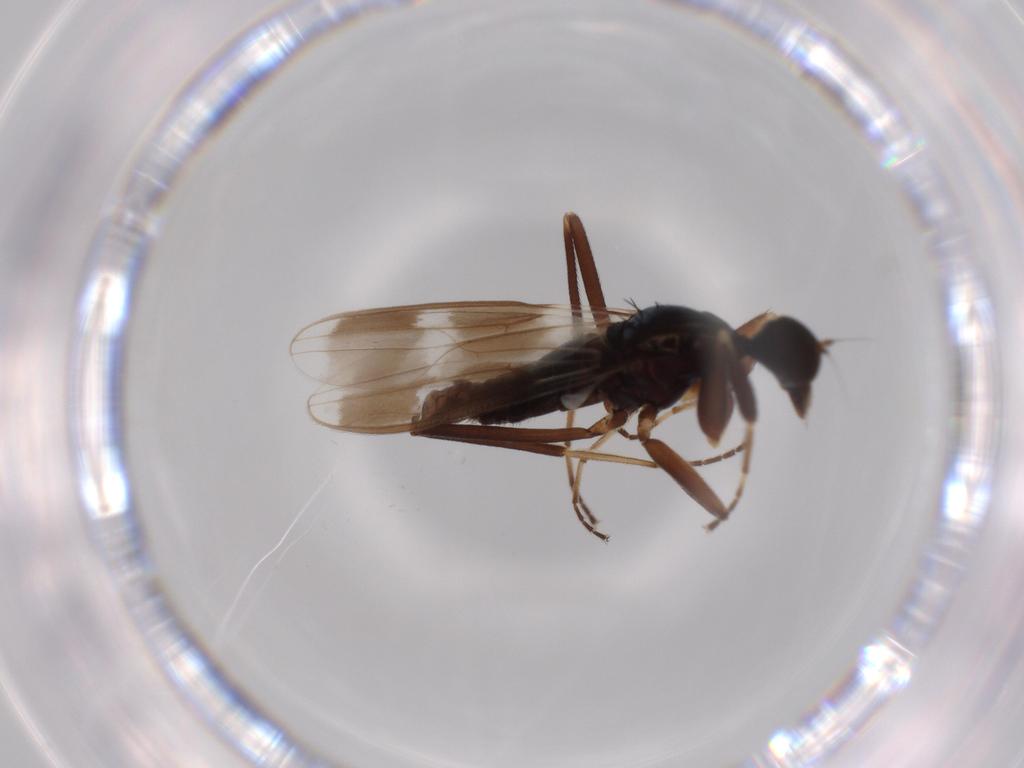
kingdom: Animalia
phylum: Arthropoda
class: Insecta
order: Diptera
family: Hybotidae
